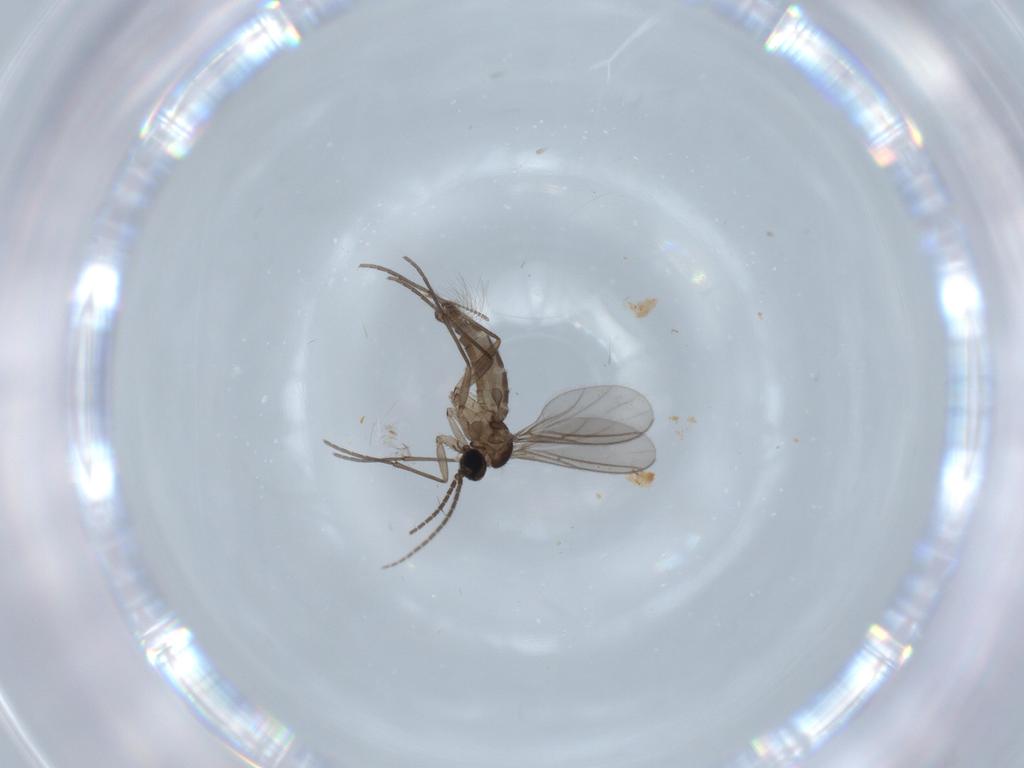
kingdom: Animalia
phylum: Arthropoda
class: Insecta
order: Diptera
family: Sciaridae
